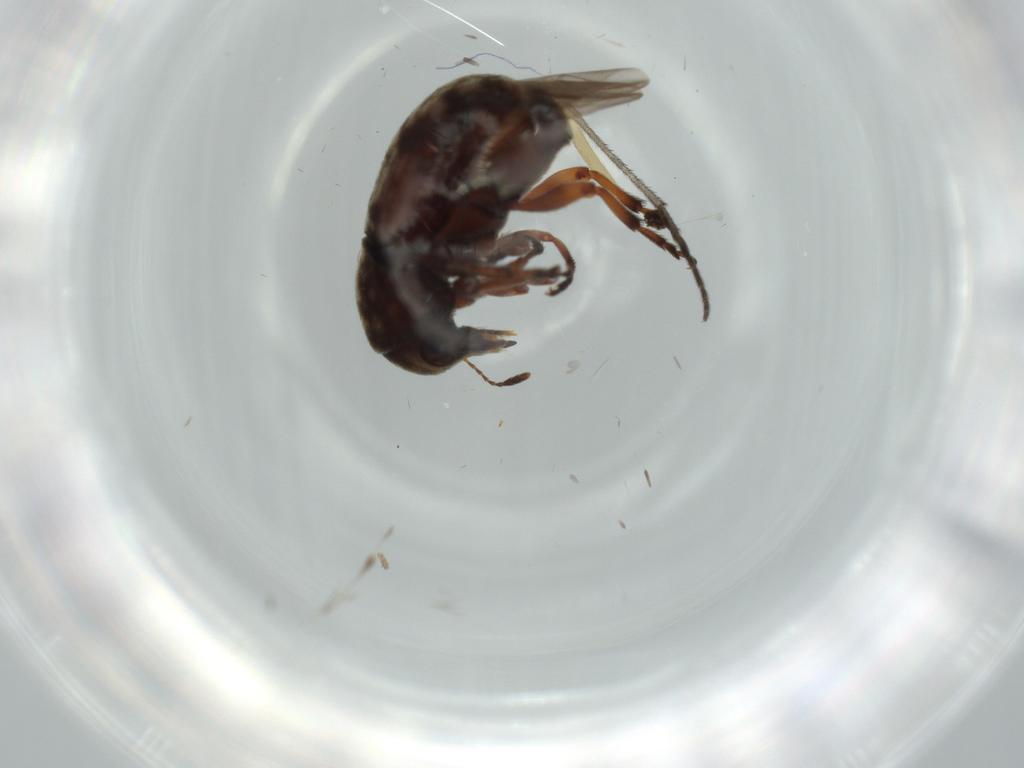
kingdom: Animalia
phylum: Arthropoda
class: Insecta
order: Coleoptera
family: Anthribidae
